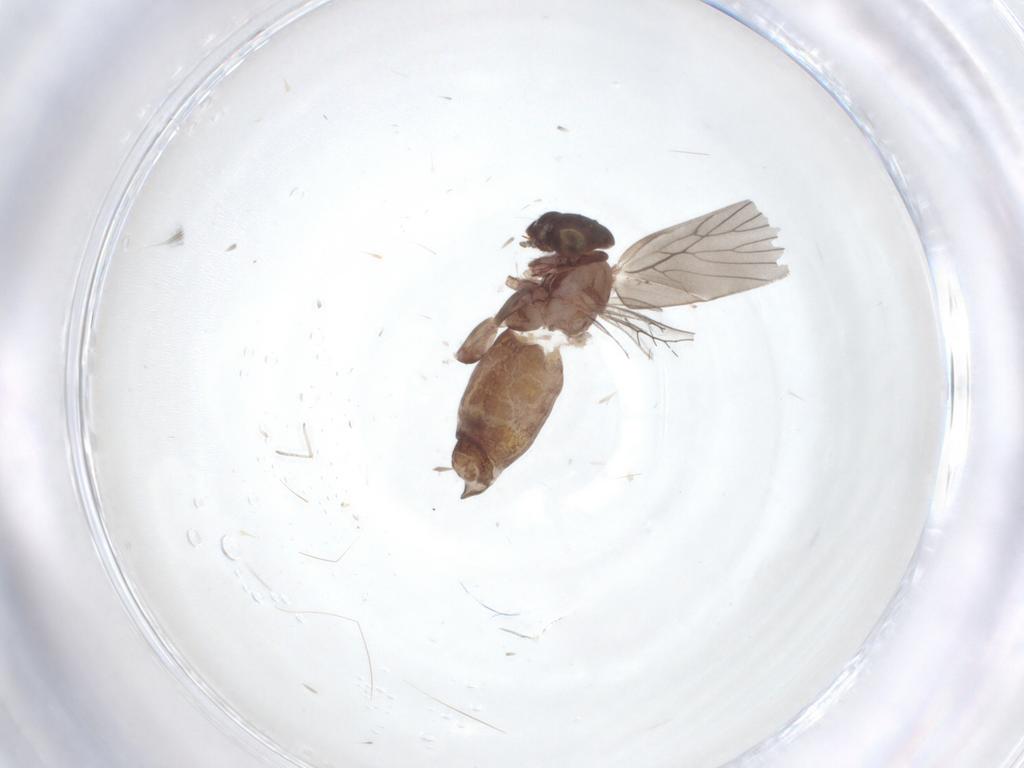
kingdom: Animalia
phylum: Arthropoda
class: Insecta
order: Psocodea
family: Lepidopsocidae
